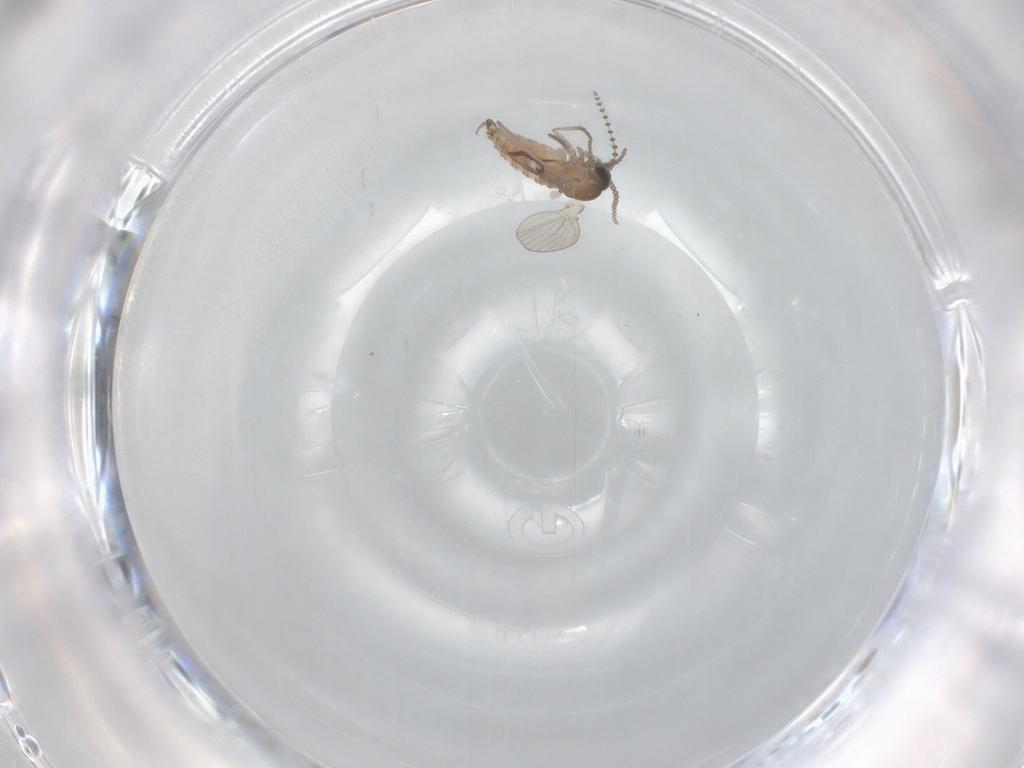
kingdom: Animalia
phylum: Arthropoda
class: Insecta
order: Diptera
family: Psychodidae
